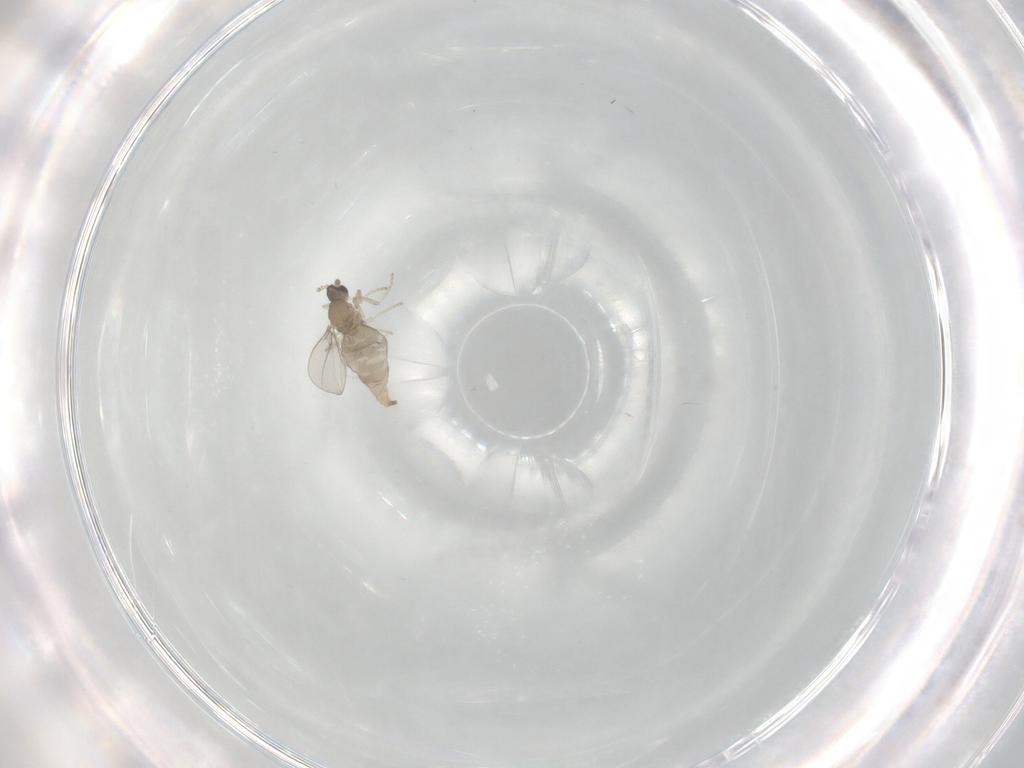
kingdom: Animalia
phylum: Arthropoda
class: Insecta
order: Diptera
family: Cecidomyiidae
